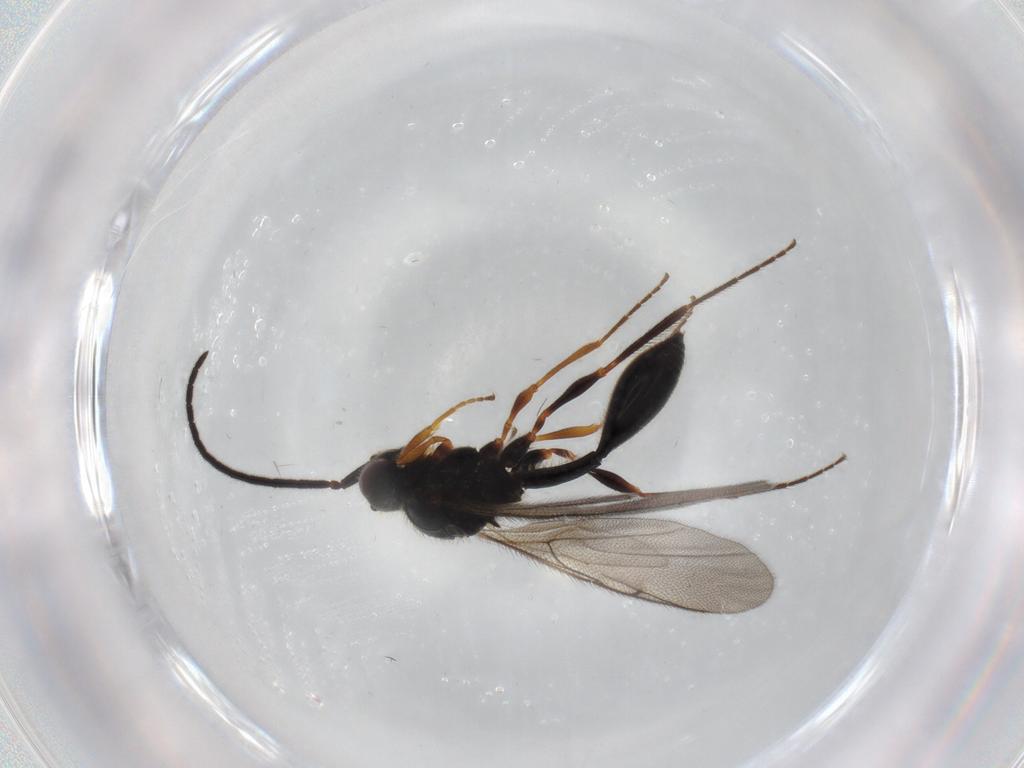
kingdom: Animalia
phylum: Arthropoda
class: Insecta
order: Hymenoptera
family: Diapriidae
